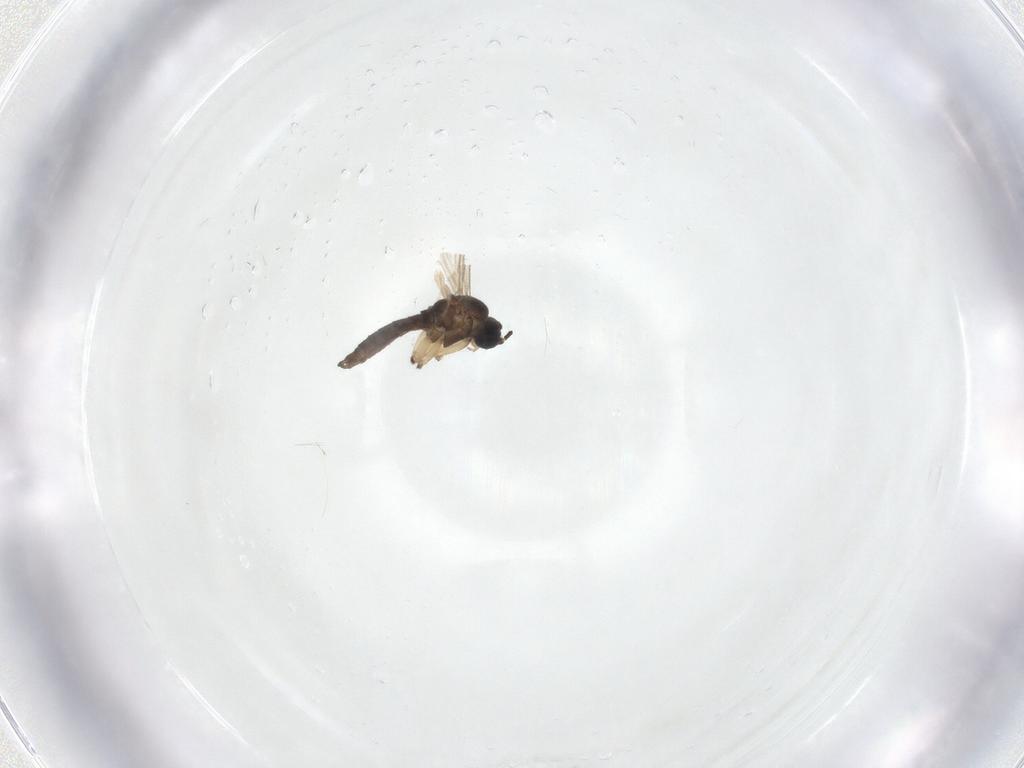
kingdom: Animalia
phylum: Arthropoda
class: Insecta
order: Diptera
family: Sciaridae
